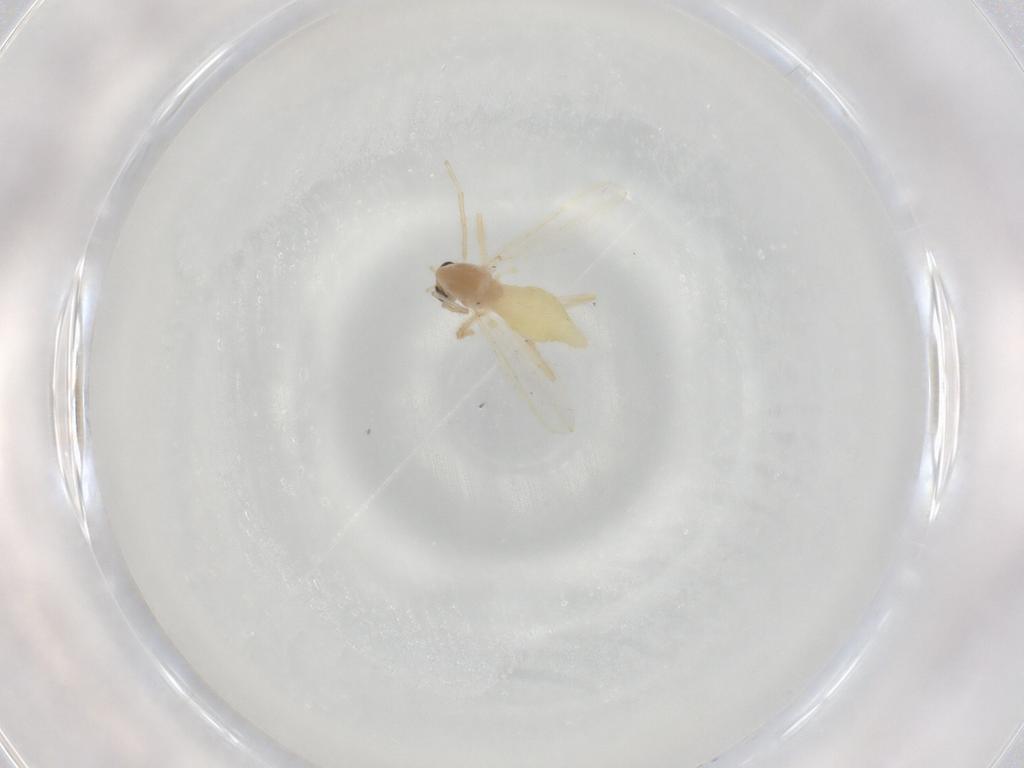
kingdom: Animalia
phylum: Arthropoda
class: Insecta
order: Diptera
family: Chironomidae
